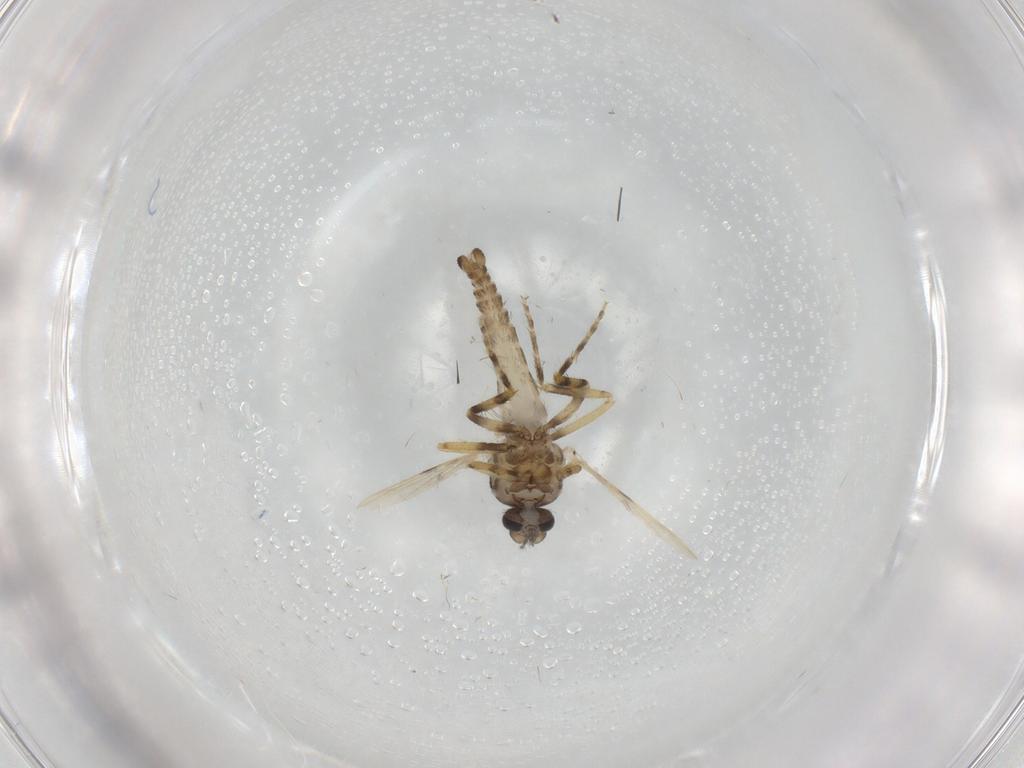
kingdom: Animalia
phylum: Arthropoda
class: Insecta
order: Diptera
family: Ceratopogonidae
